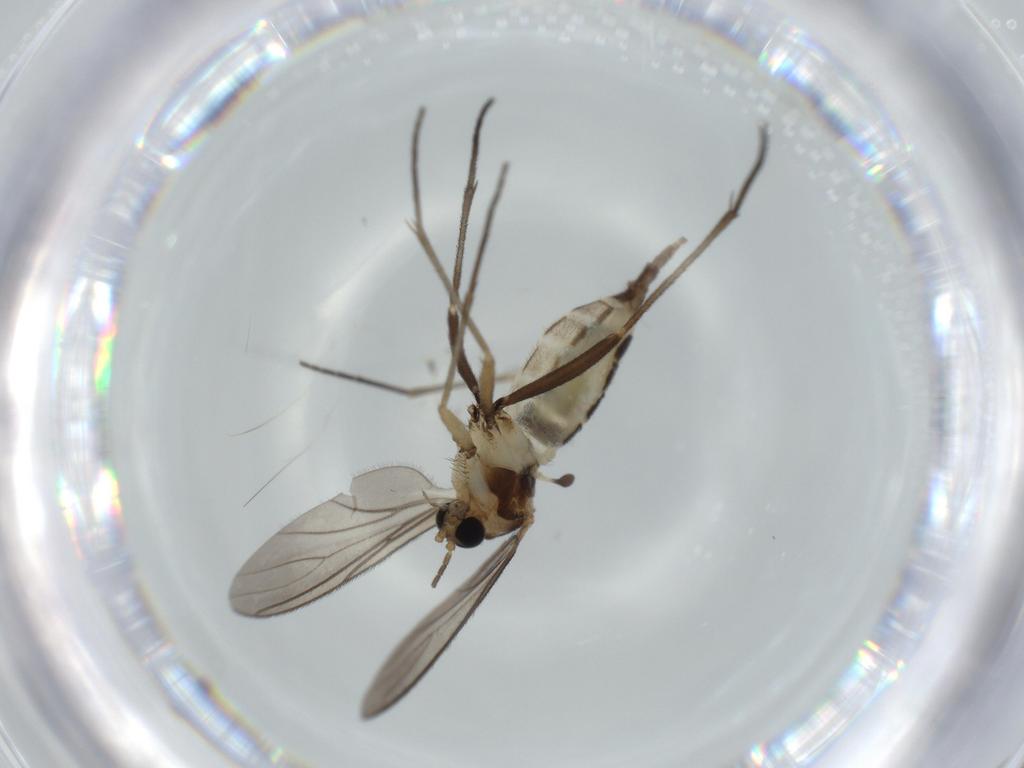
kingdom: Animalia
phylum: Arthropoda
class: Insecta
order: Diptera
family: Sciaridae
